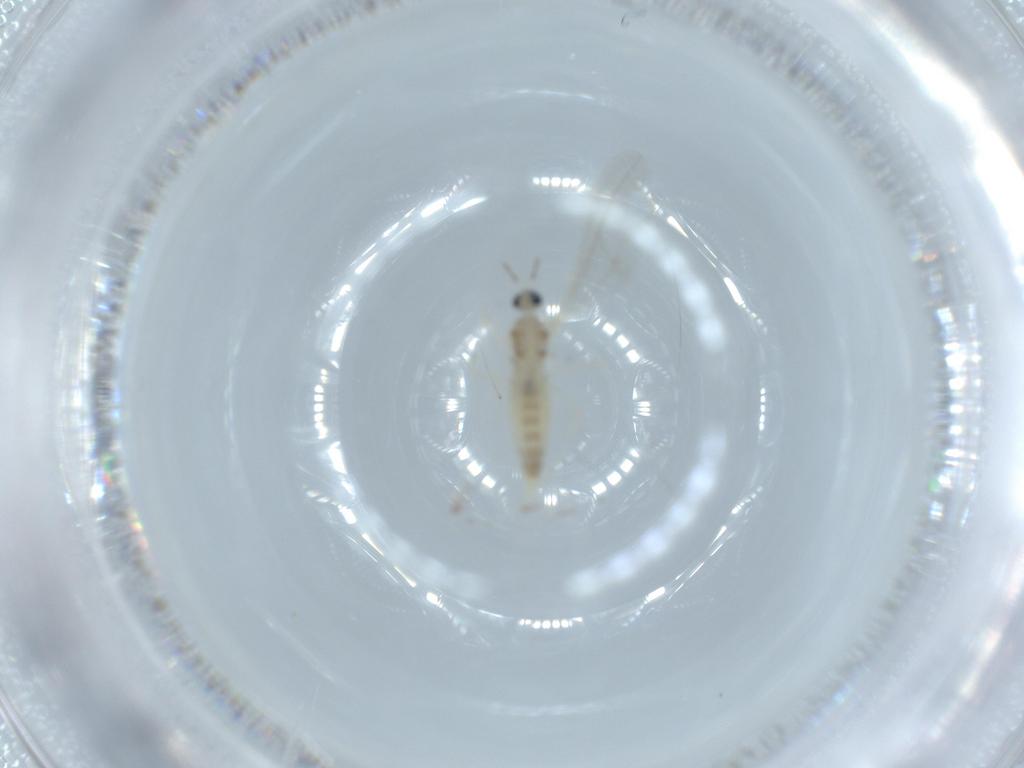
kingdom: Animalia
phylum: Arthropoda
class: Insecta
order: Diptera
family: Cecidomyiidae
